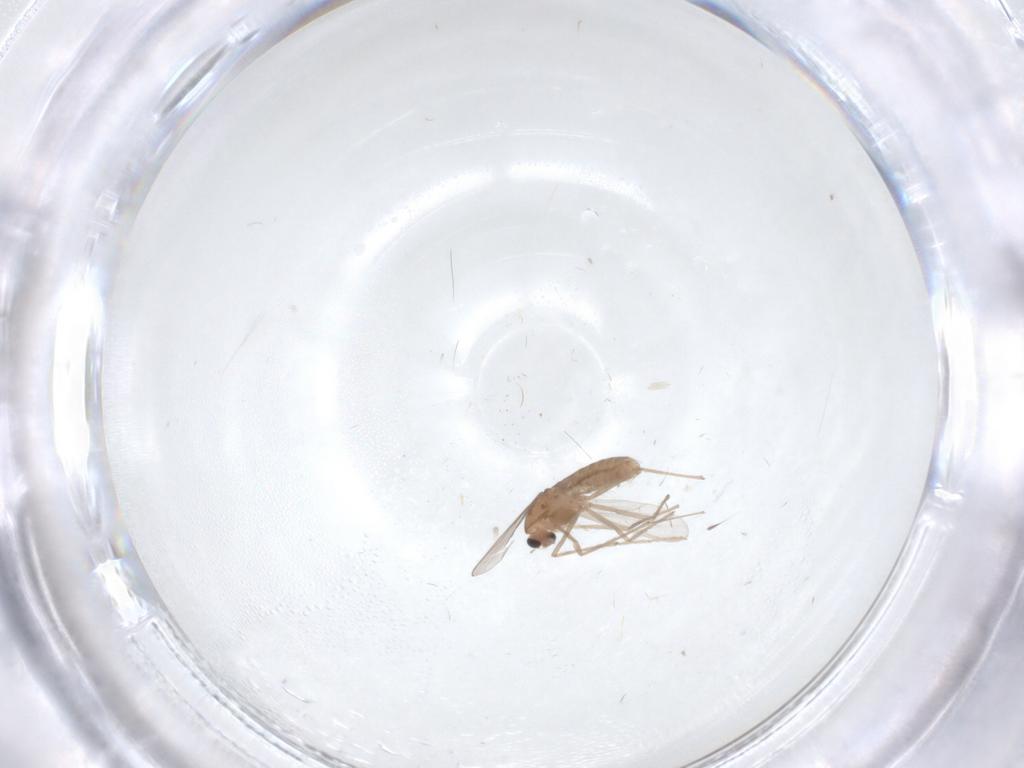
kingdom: Animalia
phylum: Arthropoda
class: Insecta
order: Diptera
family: Chironomidae
